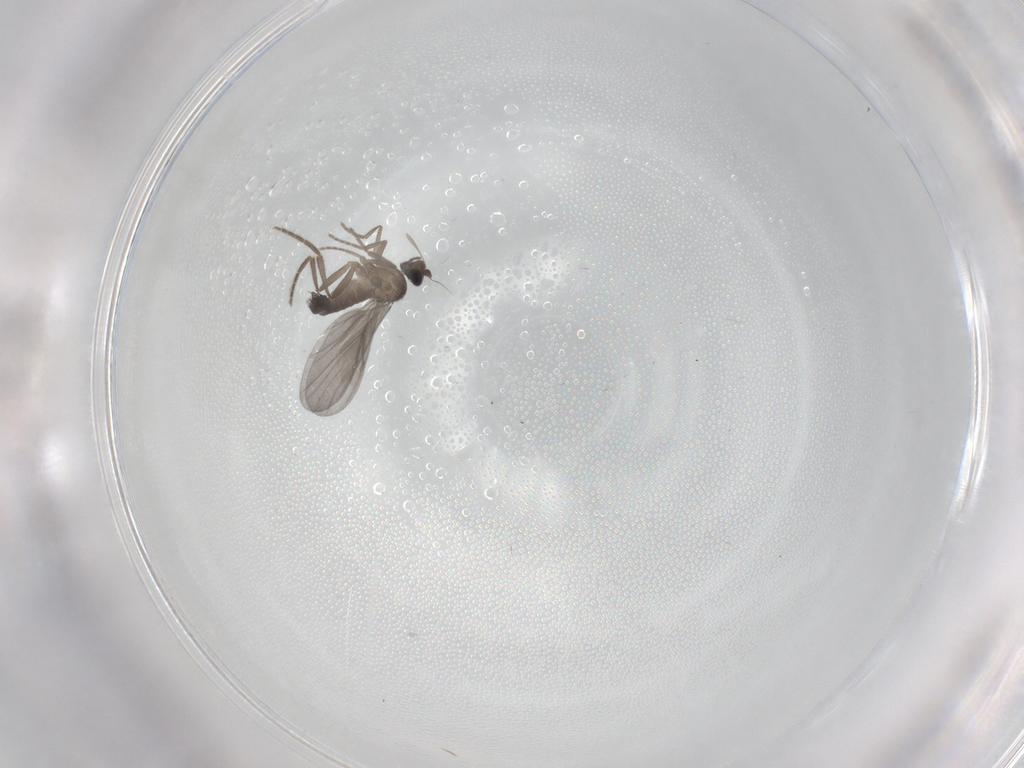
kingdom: Animalia
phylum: Arthropoda
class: Insecta
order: Diptera
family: Phoridae
